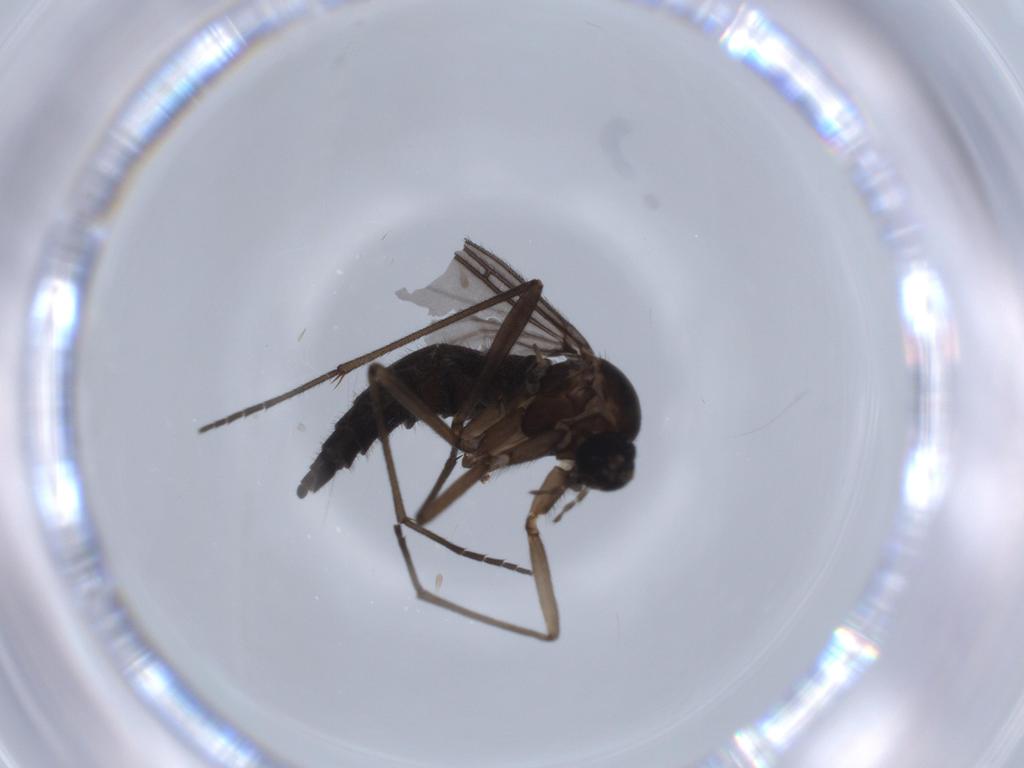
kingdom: Animalia
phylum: Arthropoda
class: Insecta
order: Diptera
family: Sciaridae
